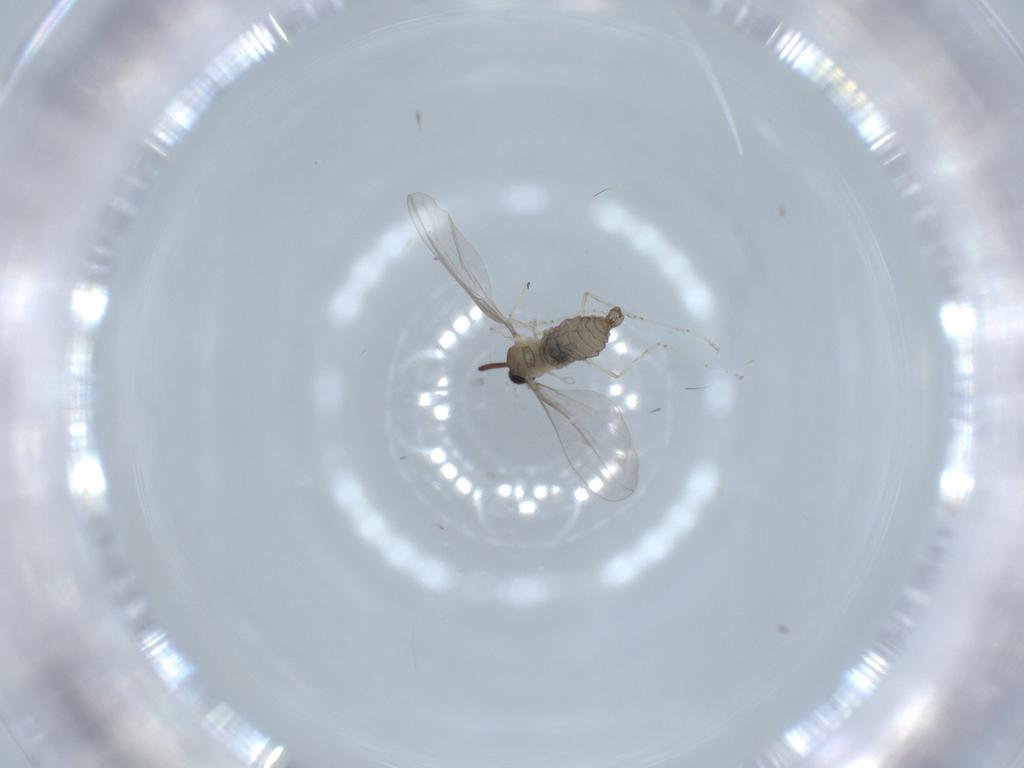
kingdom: Animalia
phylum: Arthropoda
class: Insecta
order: Diptera
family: Cecidomyiidae
